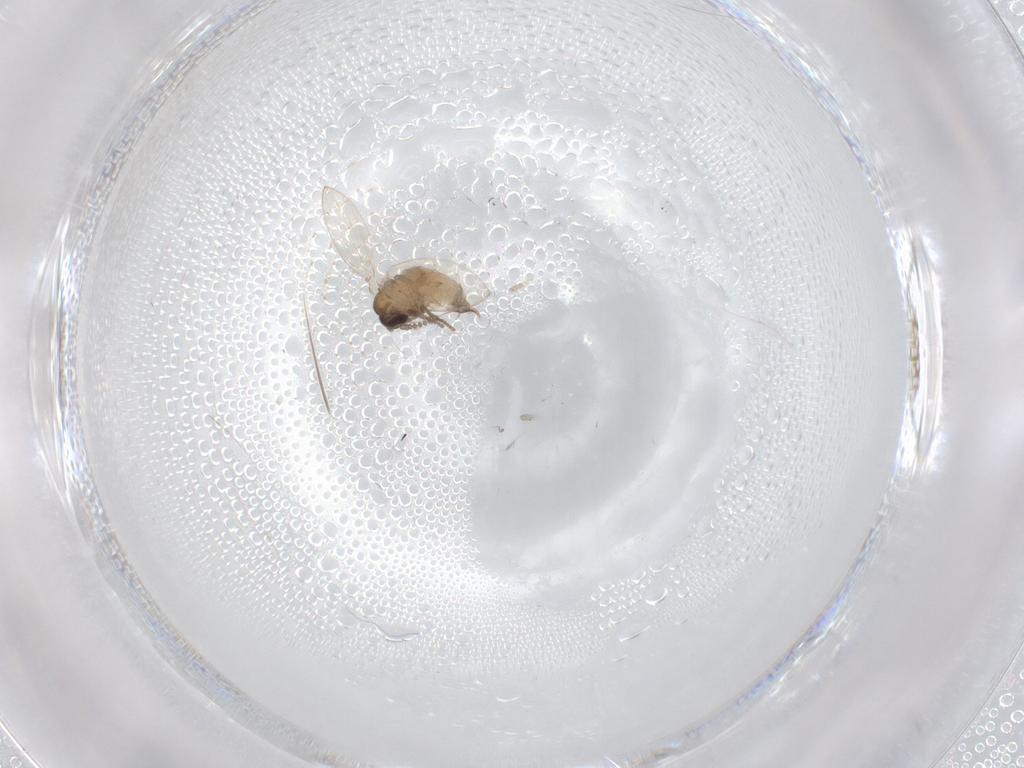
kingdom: Animalia
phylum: Arthropoda
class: Insecta
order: Diptera
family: Psychodidae
